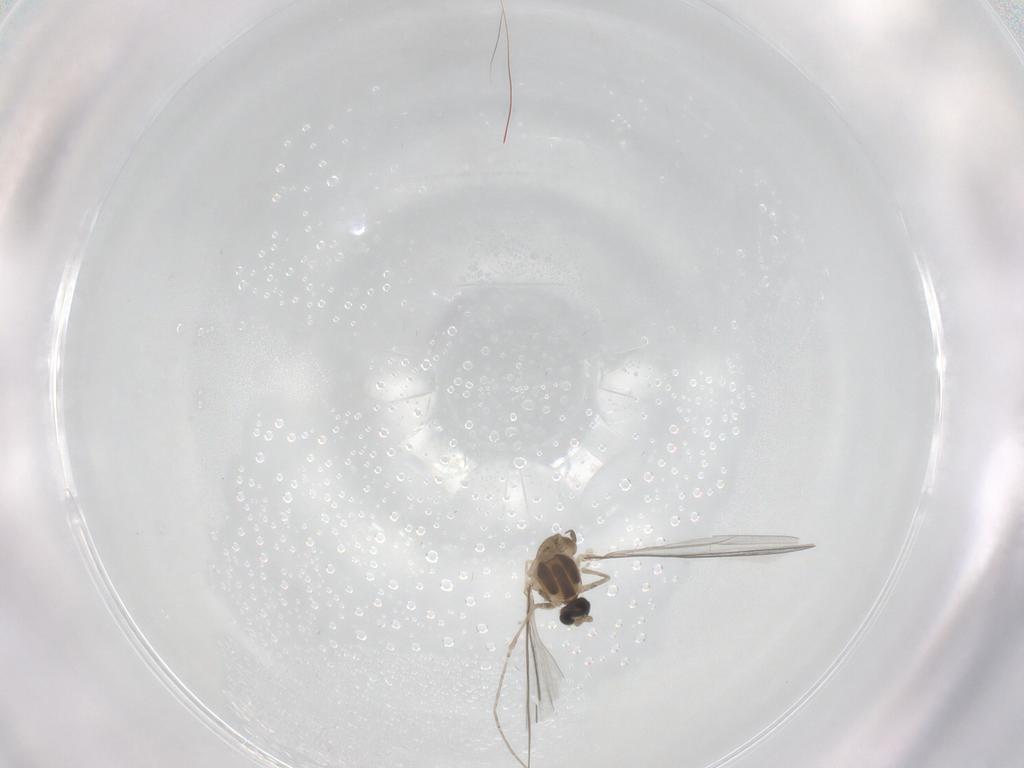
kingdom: Animalia
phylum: Arthropoda
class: Insecta
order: Diptera
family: Cecidomyiidae
